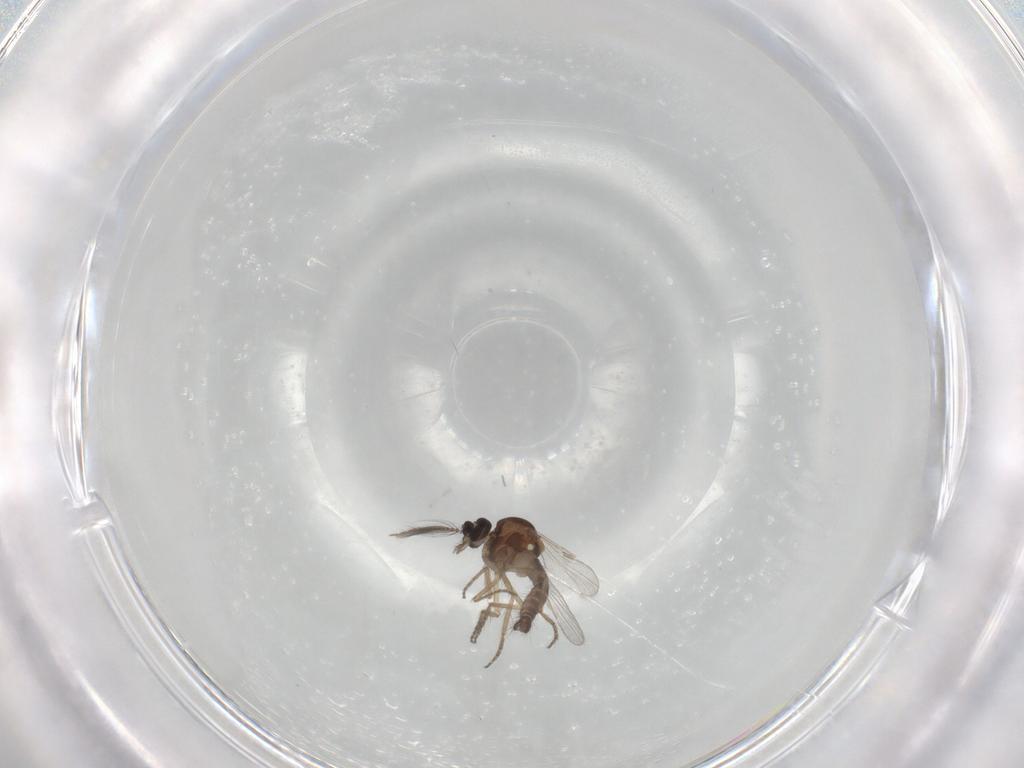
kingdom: Animalia
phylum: Arthropoda
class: Insecta
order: Diptera
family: Ceratopogonidae
